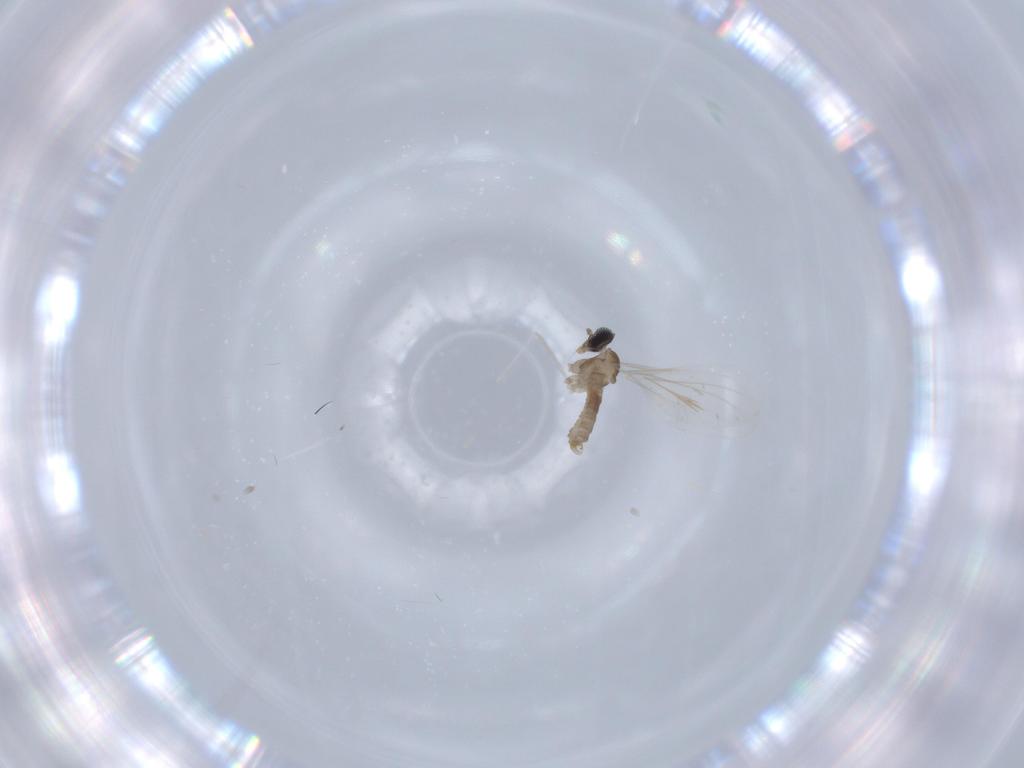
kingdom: Animalia
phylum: Arthropoda
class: Insecta
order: Diptera
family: Cecidomyiidae
